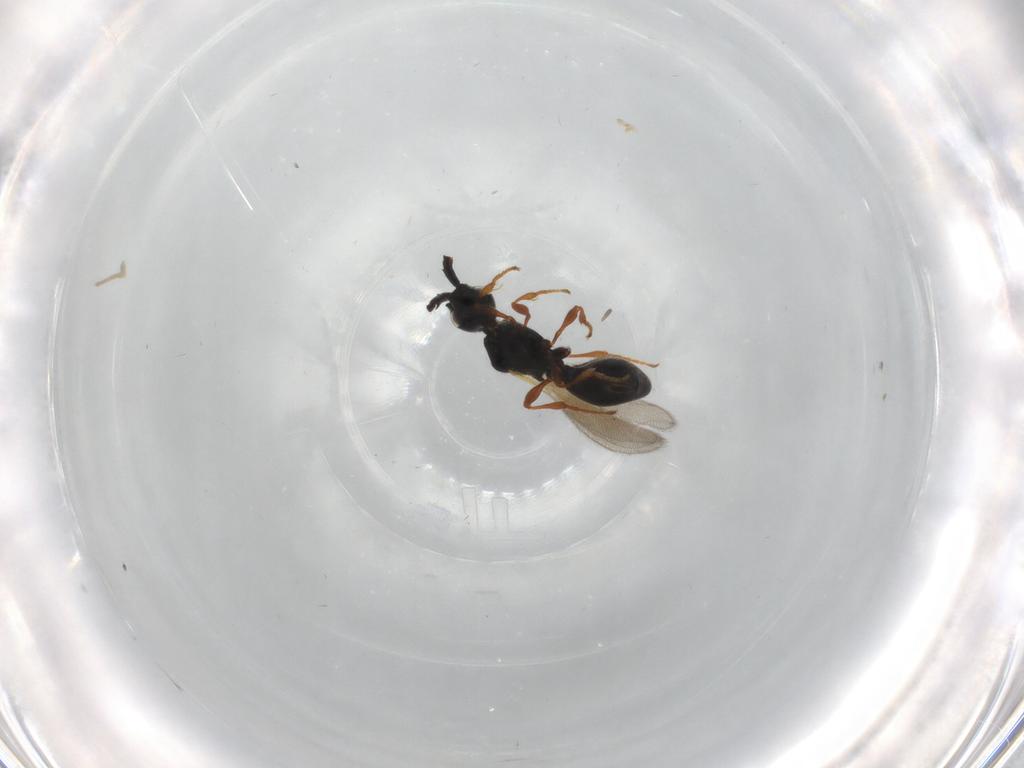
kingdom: Animalia
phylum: Arthropoda
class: Insecta
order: Hymenoptera
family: Diapriidae
